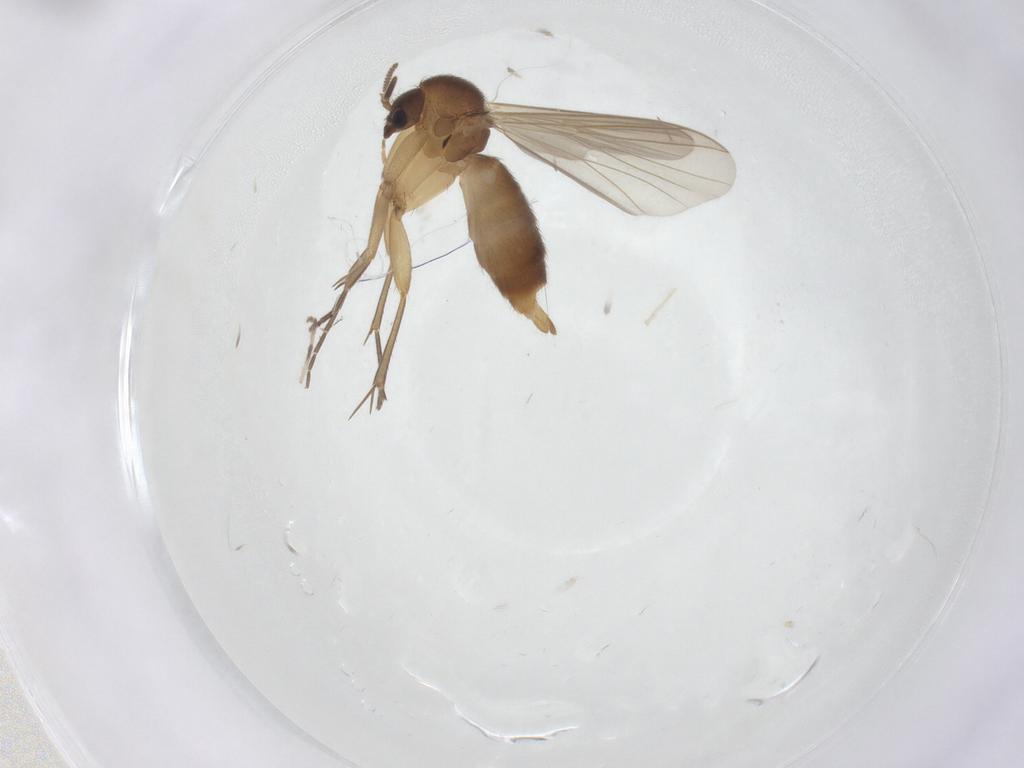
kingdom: Animalia
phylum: Arthropoda
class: Insecta
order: Diptera
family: Mycetophilidae
